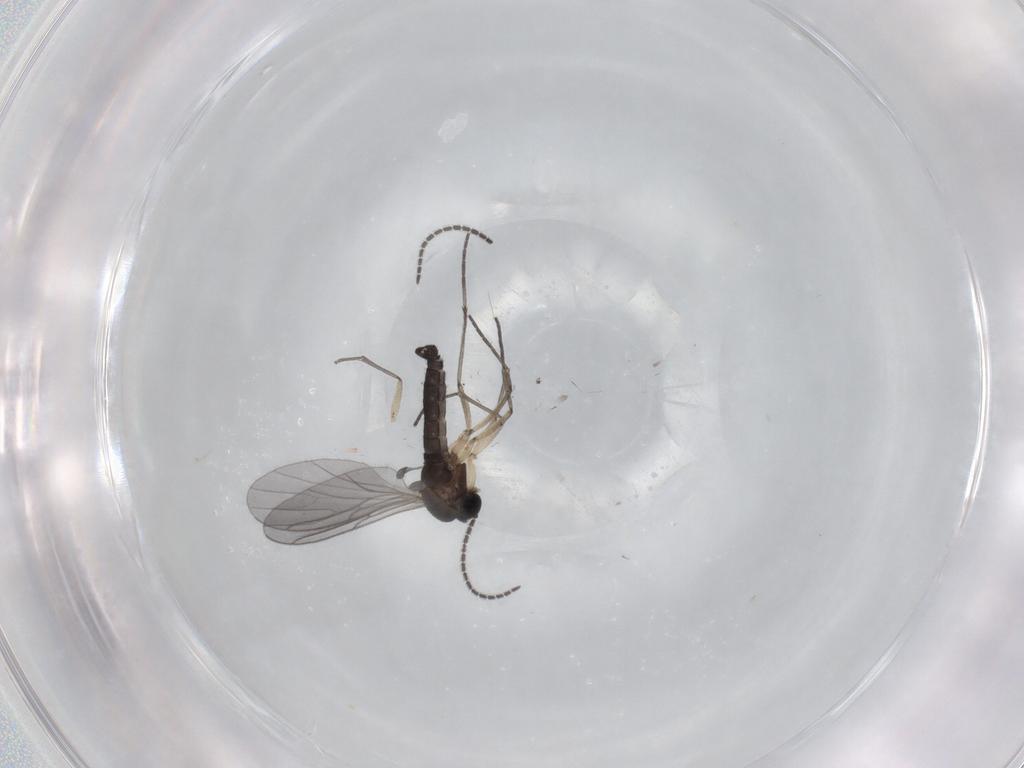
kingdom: Animalia
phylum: Arthropoda
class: Insecta
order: Diptera
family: Sciaridae
